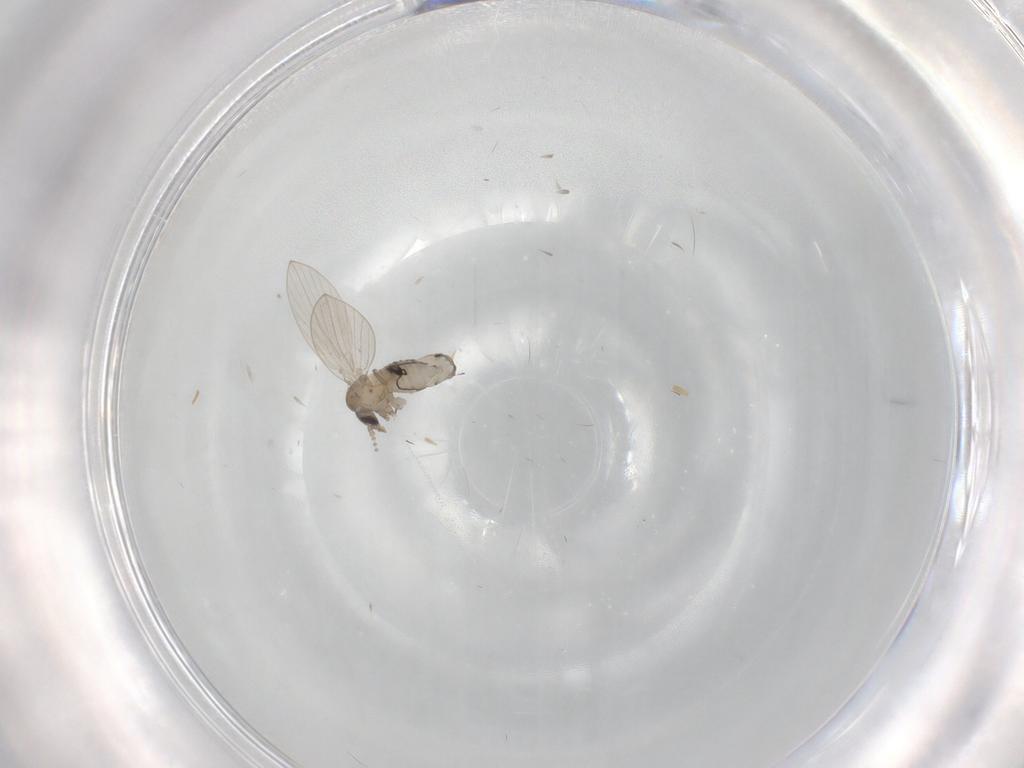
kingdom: Animalia
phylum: Arthropoda
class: Insecta
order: Diptera
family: Psychodidae
